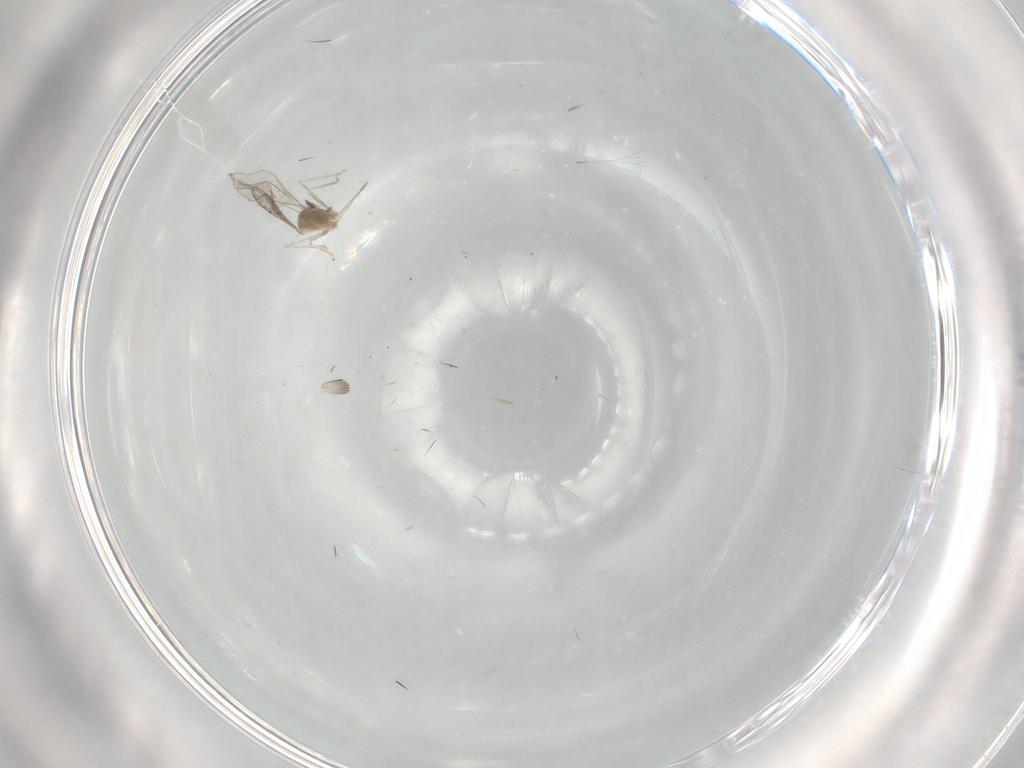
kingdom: Animalia
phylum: Arthropoda
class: Insecta
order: Diptera
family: Cecidomyiidae
